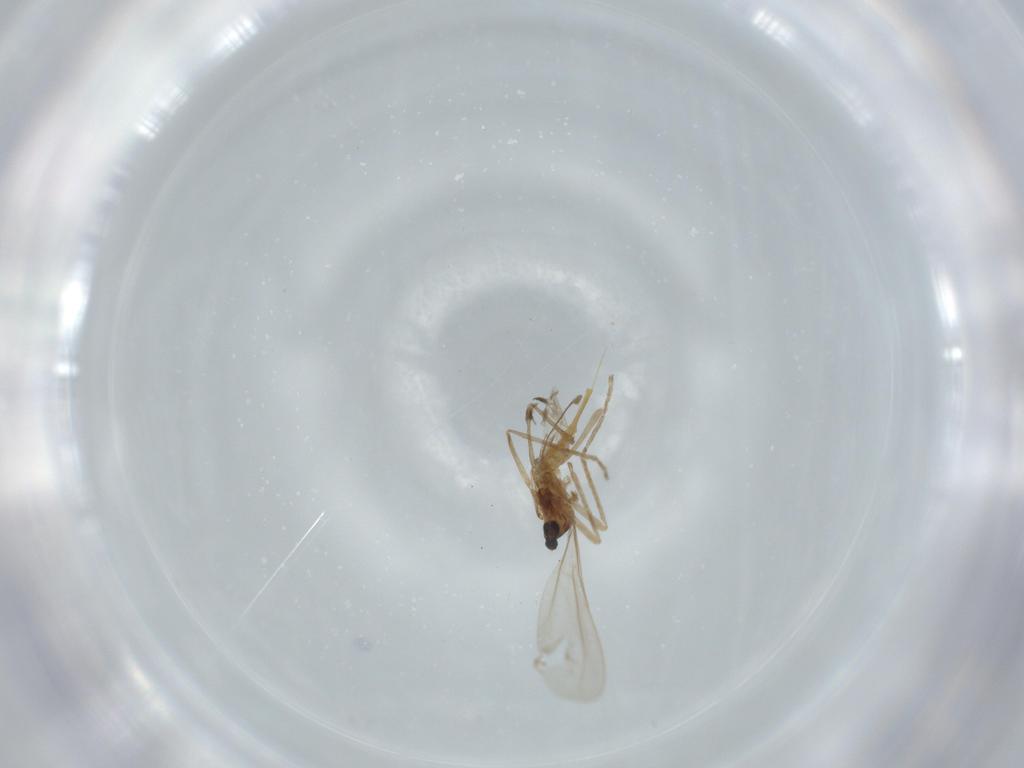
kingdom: Animalia
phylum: Arthropoda
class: Insecta
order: Diptera
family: Cecidomyiidae
